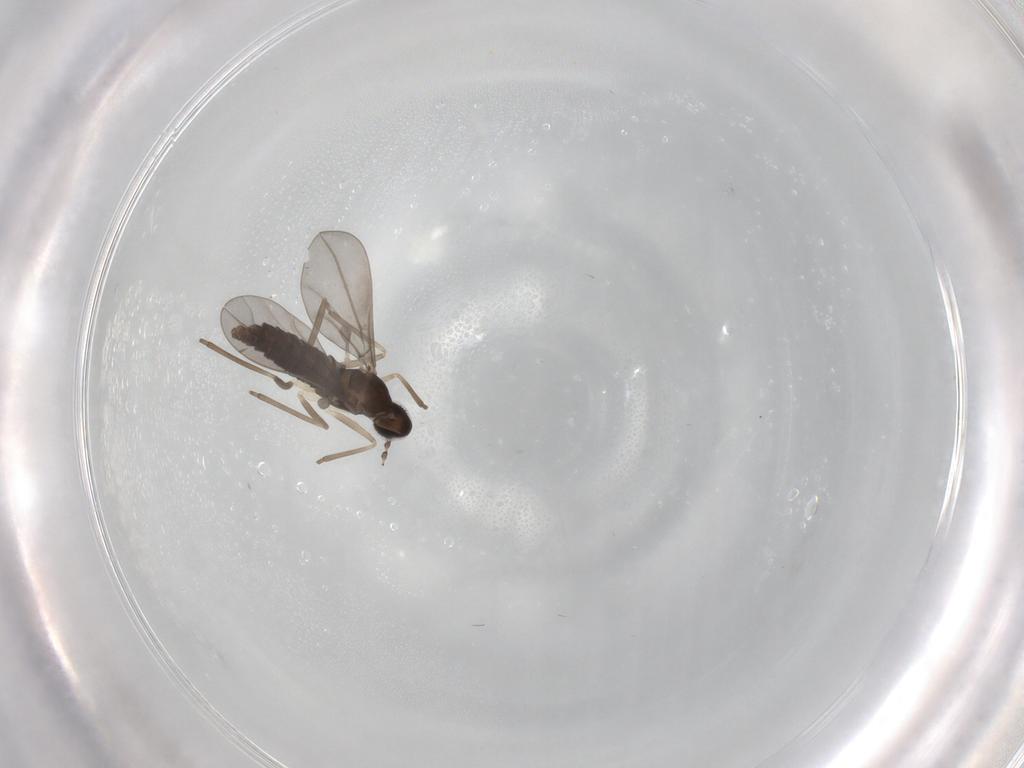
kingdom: Animalia
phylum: Arthropoda
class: Insecta
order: Diptera
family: Cecidomyiidae
